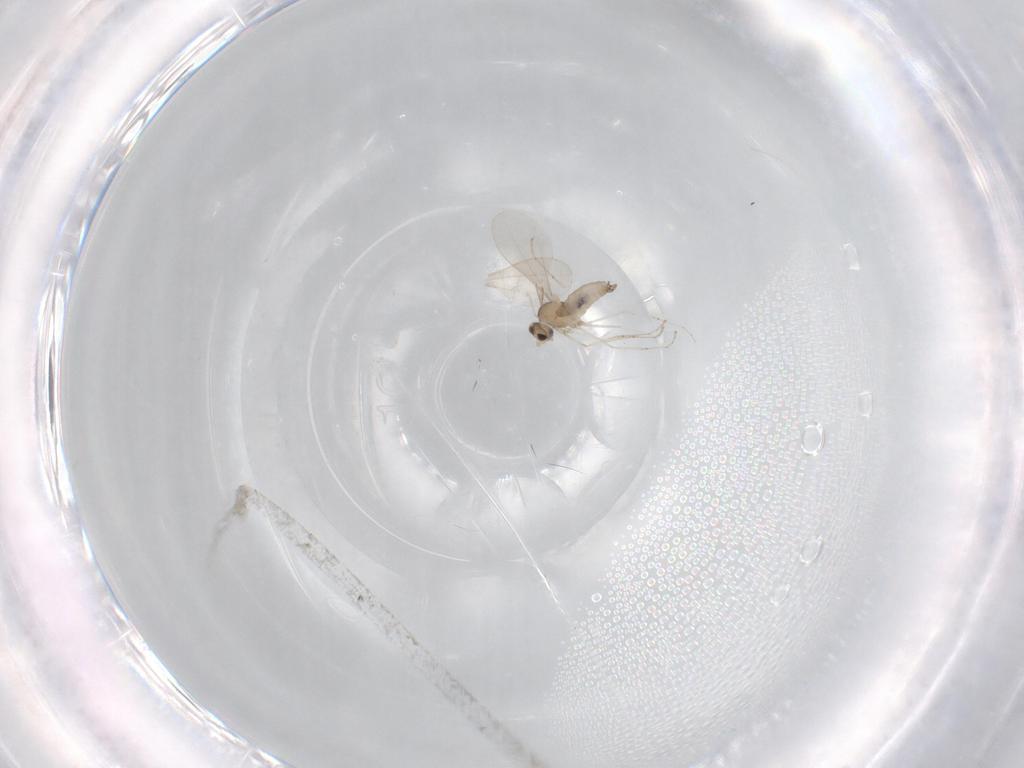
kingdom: Animalia
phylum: Arthropoda
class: Insecta
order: Diptera
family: Cecidomyiidae
